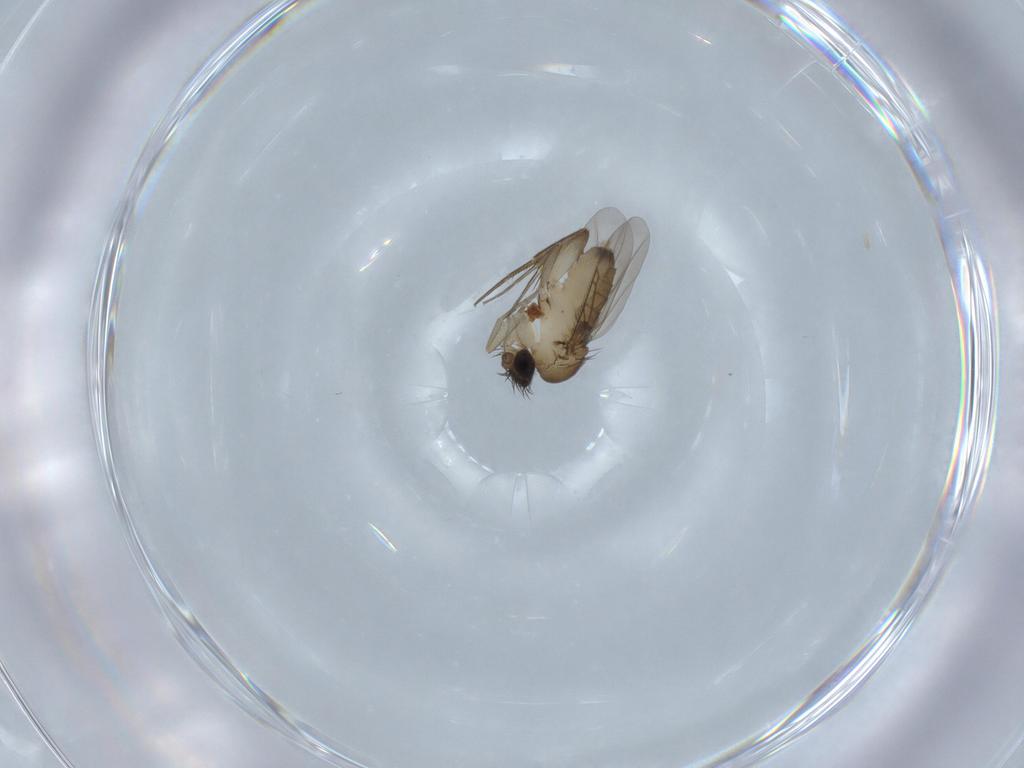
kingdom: Animalia
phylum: Arthropoda
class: Insecta
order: Diptera
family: Phoridae
